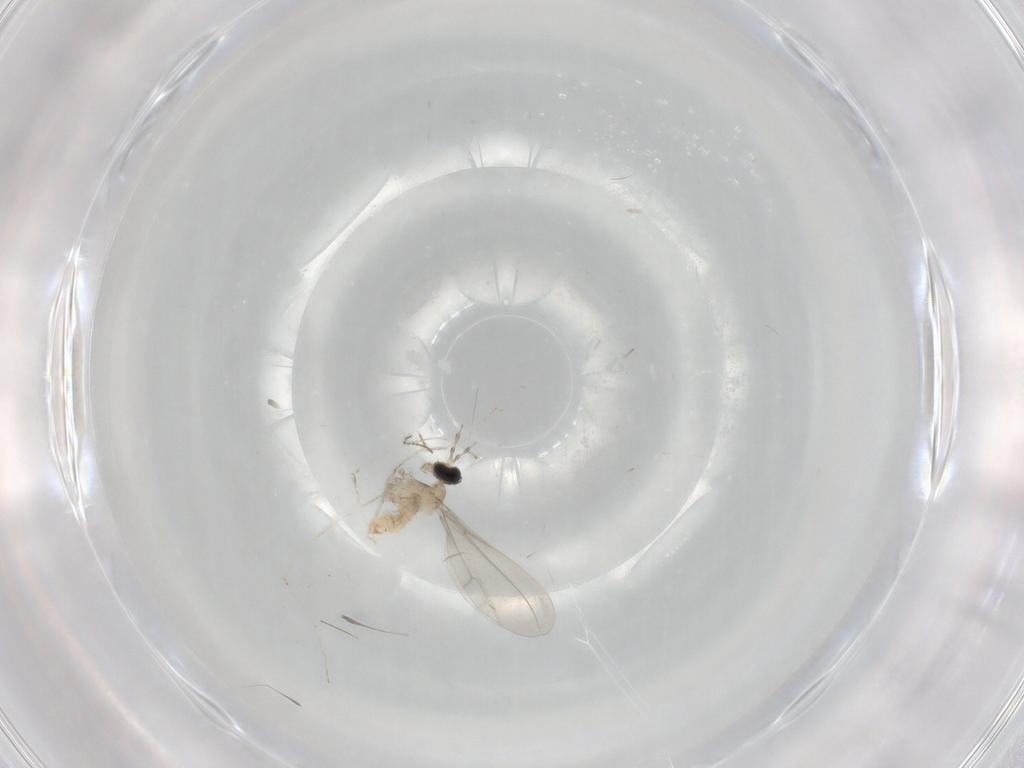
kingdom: Animalia
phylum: Arthropoda
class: Insecta
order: Diptera
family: Cecidomyiidae
